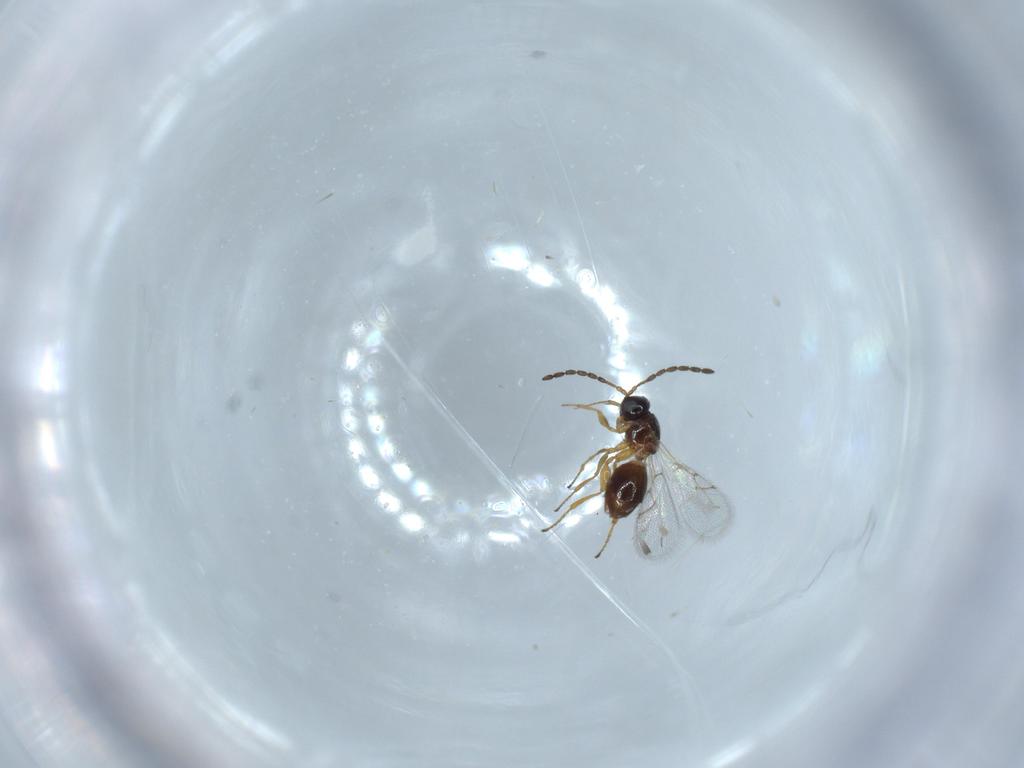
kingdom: Animalia
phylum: Arthropoda
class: Insecta
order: Hymenoptera
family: Figitidae
